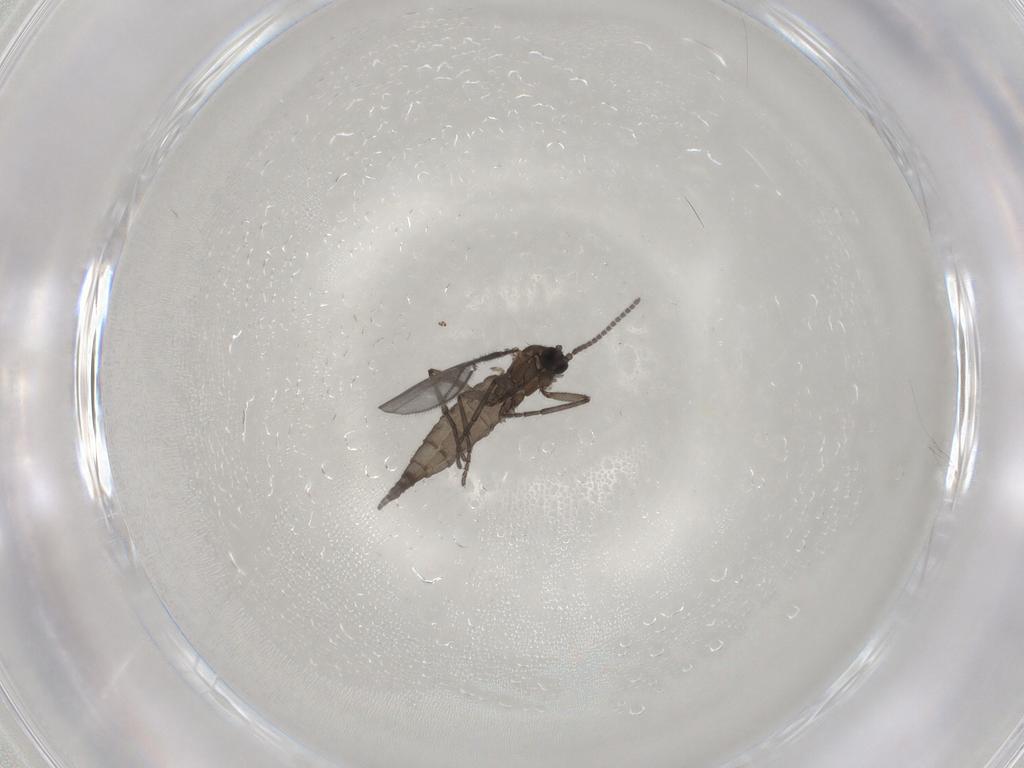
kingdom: Animalia
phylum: Arthropoda
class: Insecta
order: Diptera
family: Sciaridae
